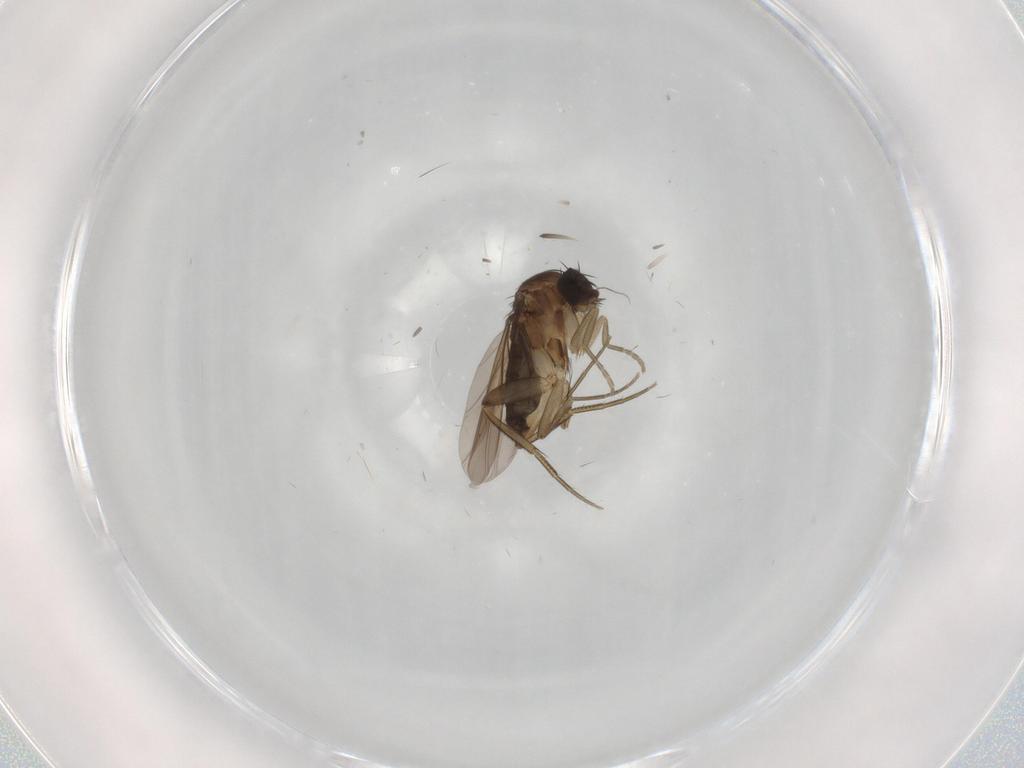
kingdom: Animalia
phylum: Arthropoda
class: Insecta
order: Diptera
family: Phoridae
